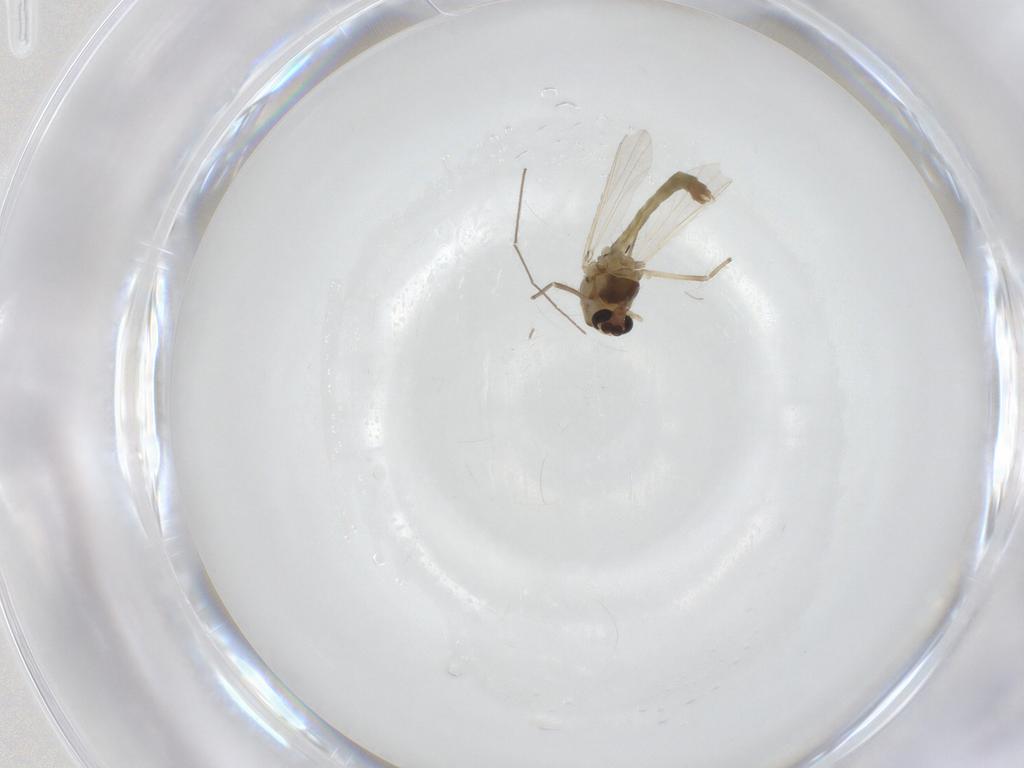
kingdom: Animalia
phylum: Arthropoda
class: Insecta
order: Diptera
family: Chironomidae
